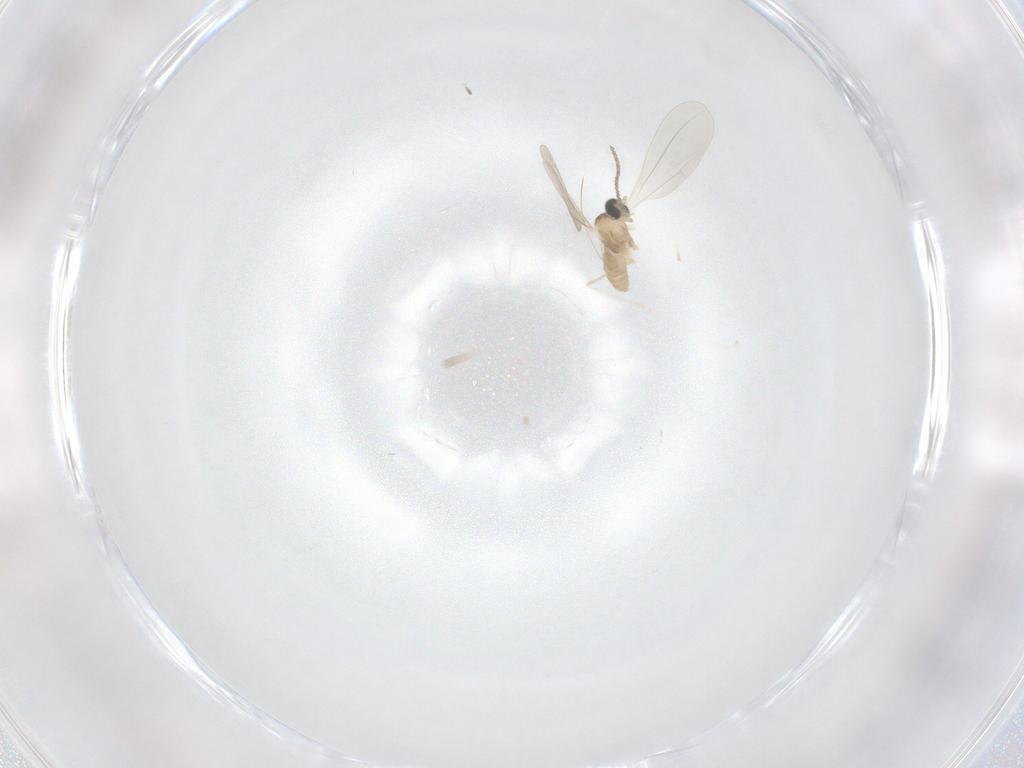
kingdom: Animalia
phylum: Arthropoda
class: Insecta
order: Diptera
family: Cecidomyiidae
